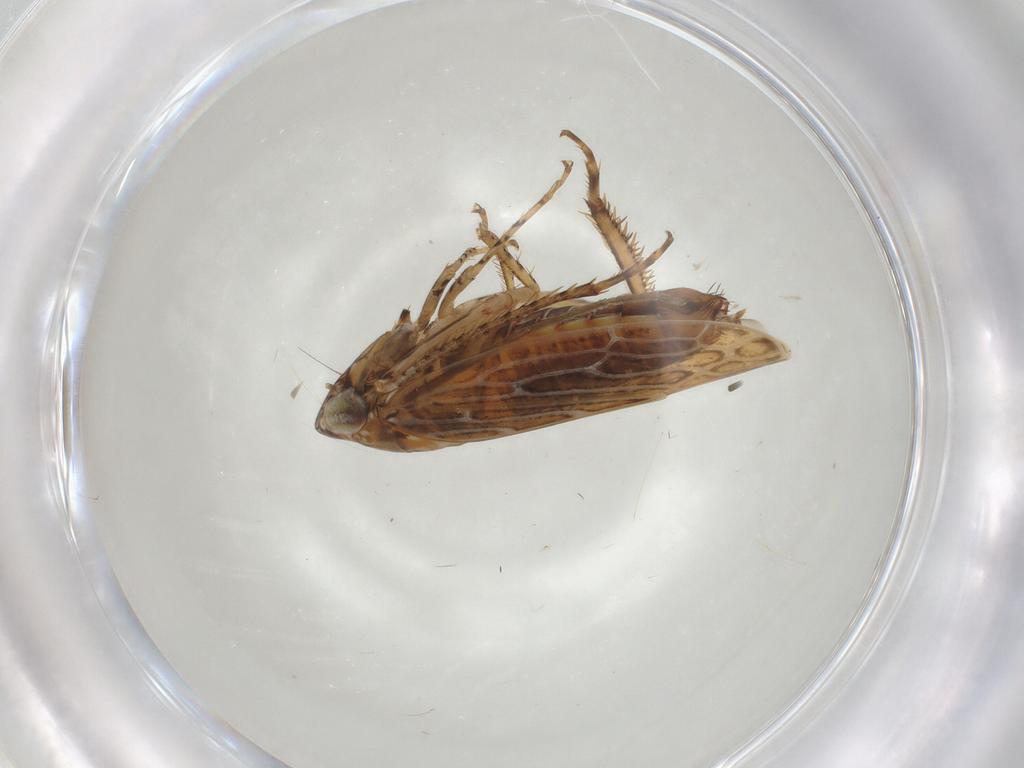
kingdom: Animalia
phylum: Arthropoda
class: Insecta
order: Hemiptera
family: Cicadellidae
